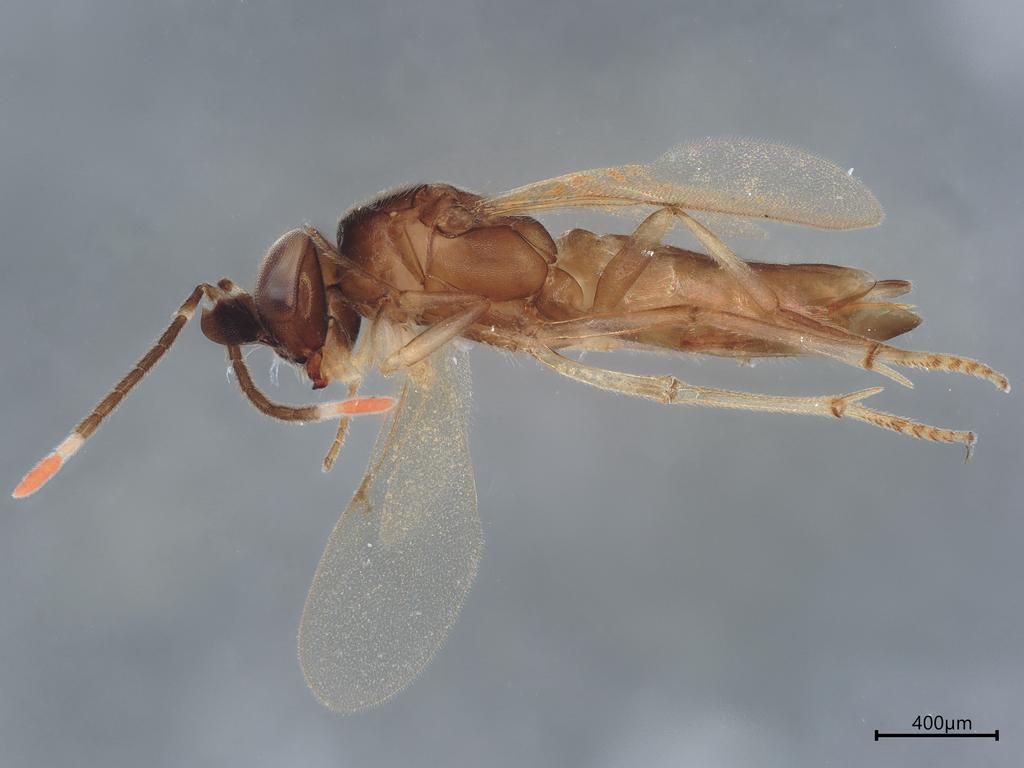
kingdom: Animalia
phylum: Arthropoda
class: Insecta
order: Hymenoptera
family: Encyrtidae
